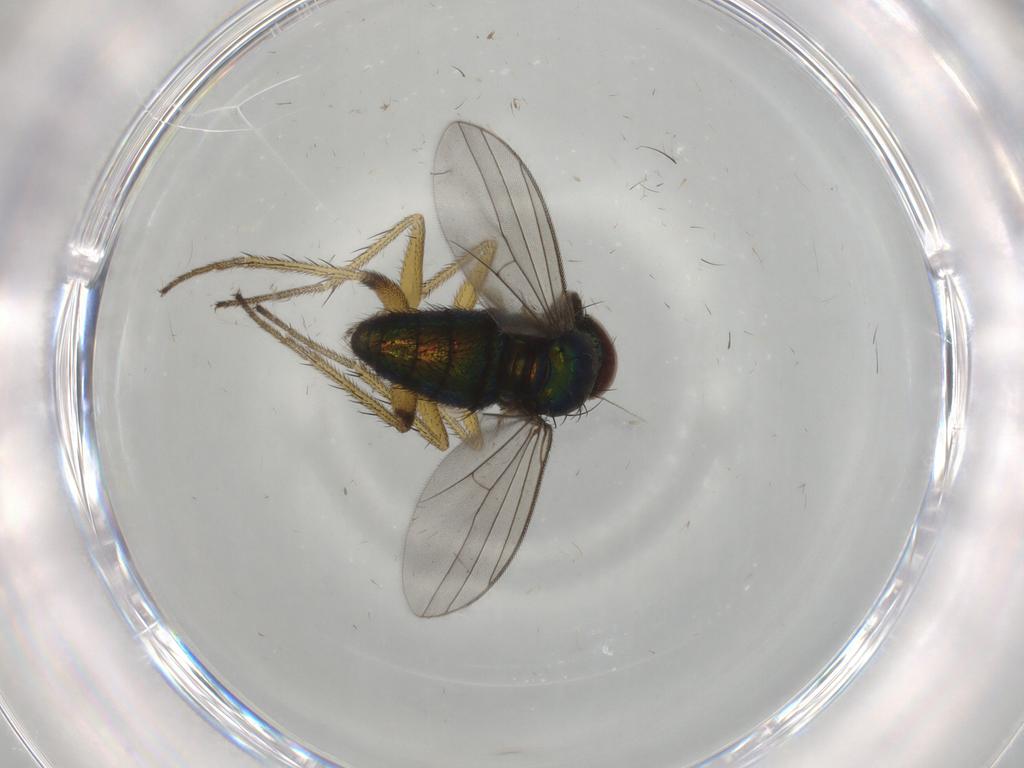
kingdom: Animalia
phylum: Arthropoda
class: Insecta
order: Diptera
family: Dolichopodidae
